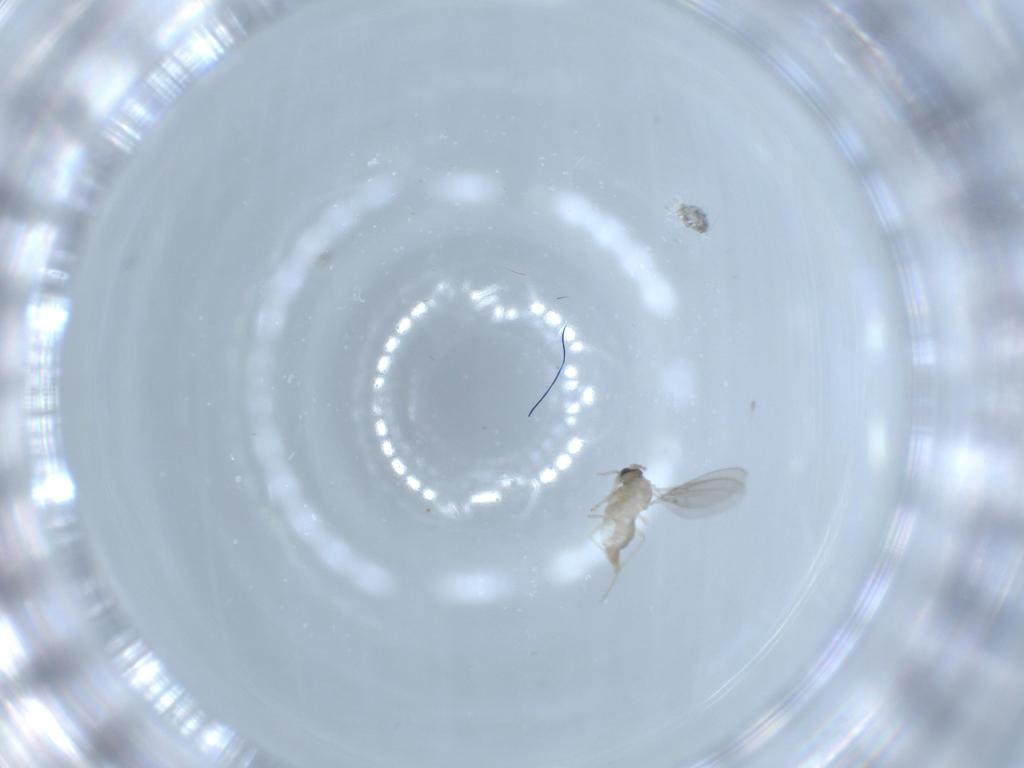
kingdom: Animalia
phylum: Arthropoda
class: Insecta
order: Diptera
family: Cecidomyiidae
